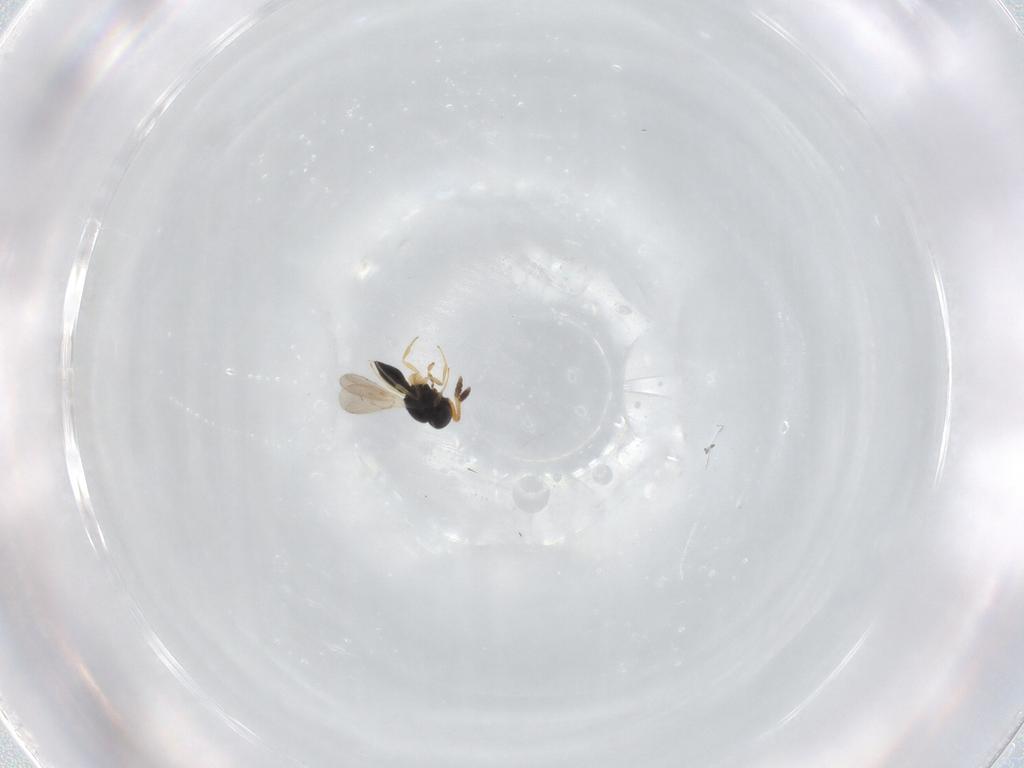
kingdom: Animalia
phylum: Arthropoda
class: Insecta
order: Hymenoptera
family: Scelionidae
